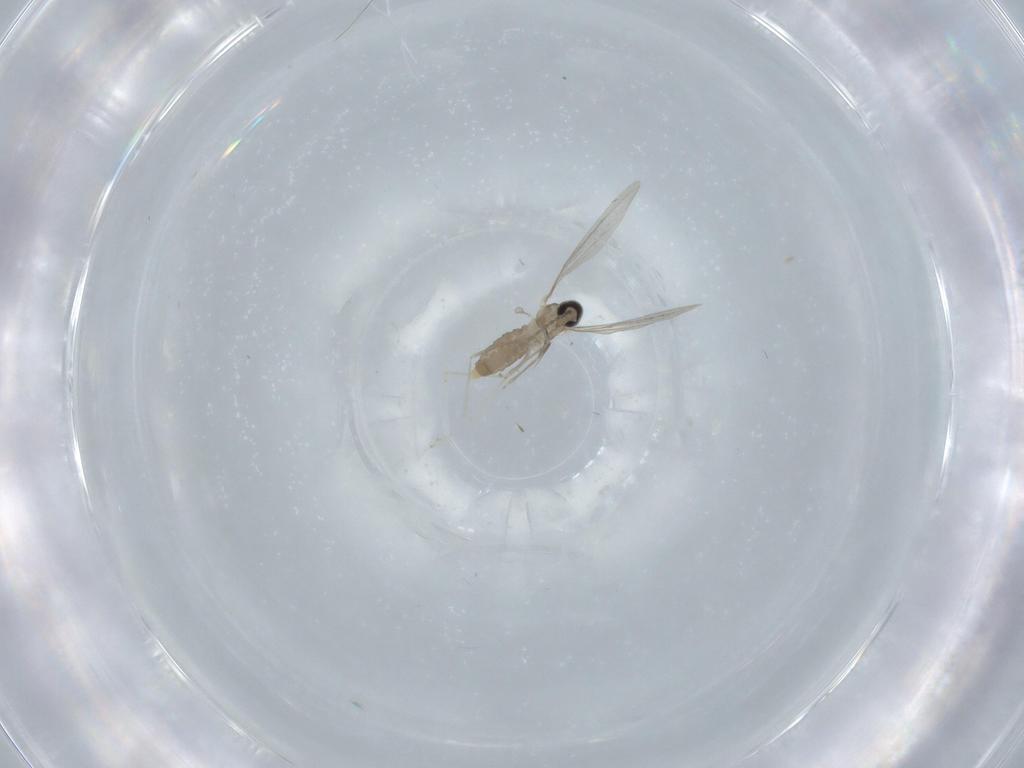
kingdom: Animalia
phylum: Arthropoda
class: Insecta
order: Diptera
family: Cecidomyiidae
